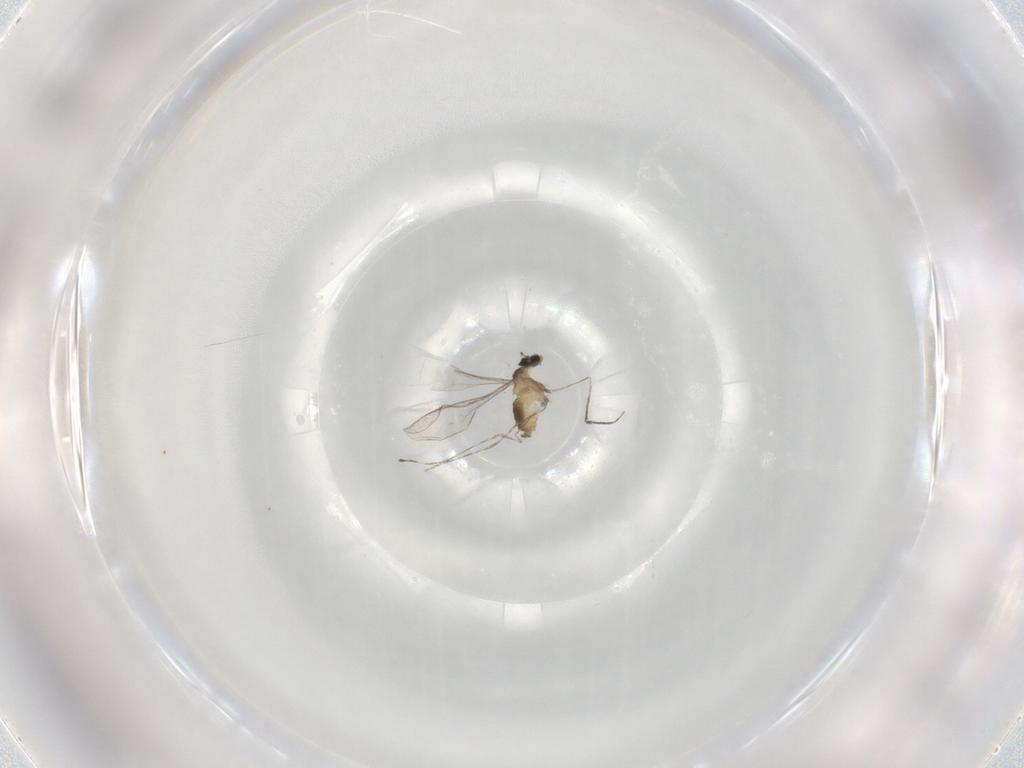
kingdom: Animalia
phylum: Arthropoda
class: Insecta
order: Diptera
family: Cecidomyiidae
